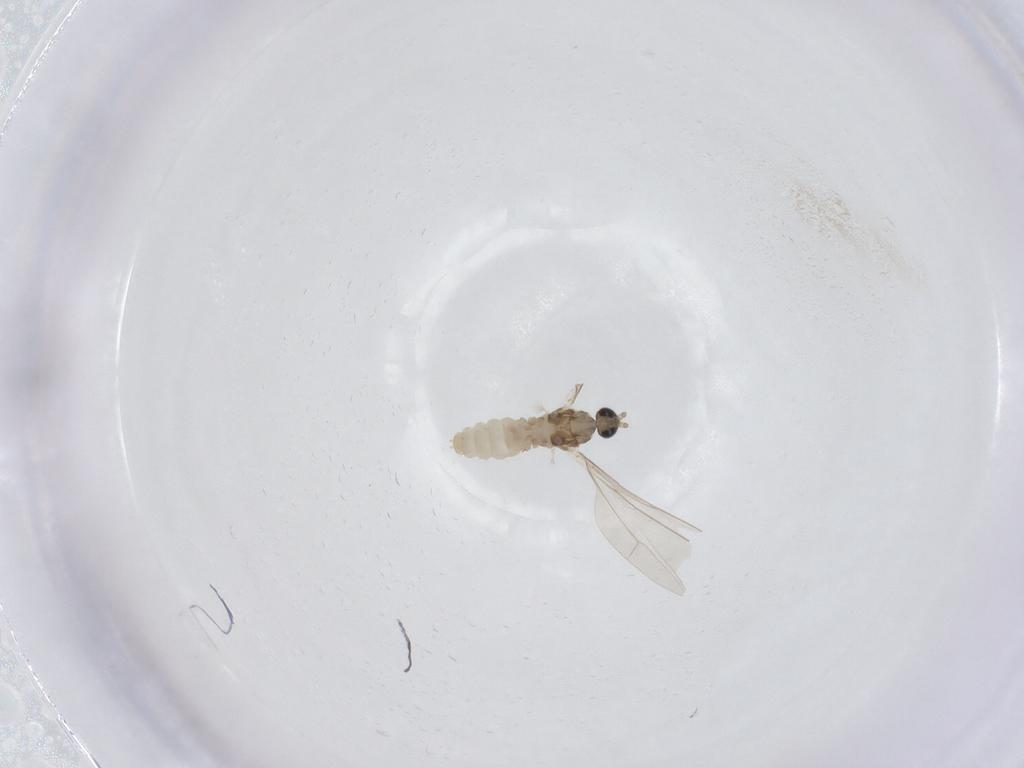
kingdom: Animalia
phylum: Arthropoda
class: Insecta
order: Diptera
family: Cecidomyiidae
